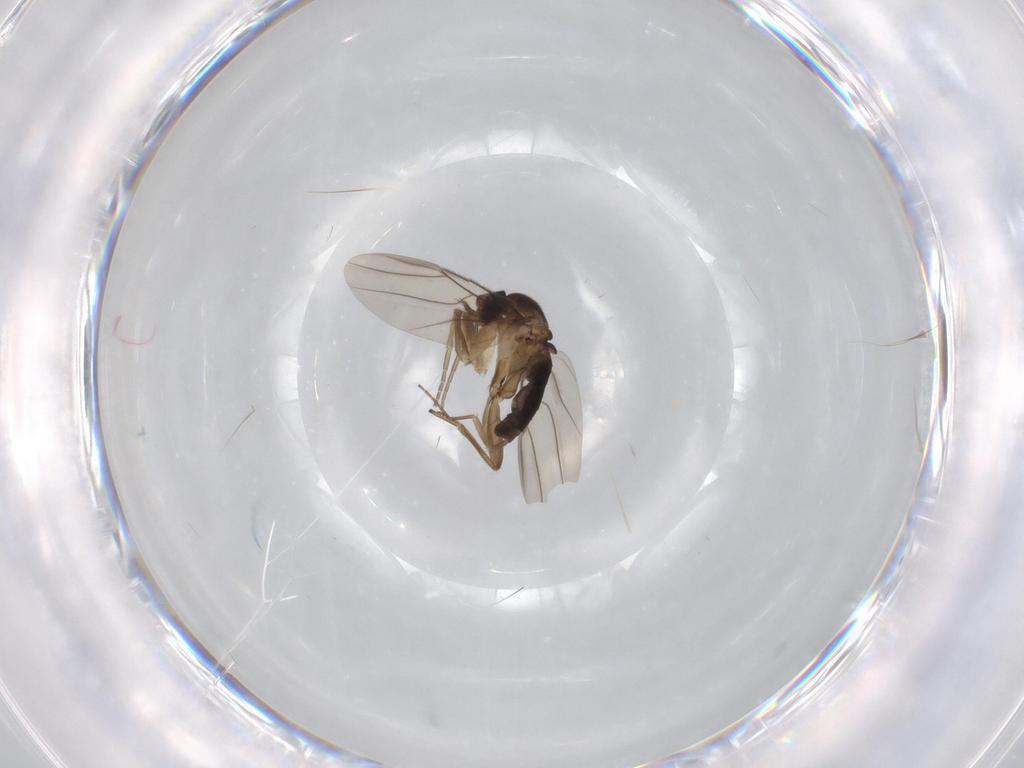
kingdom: Animalia
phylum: Arthropoda
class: Insecta
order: Diptera
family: Phoridae
